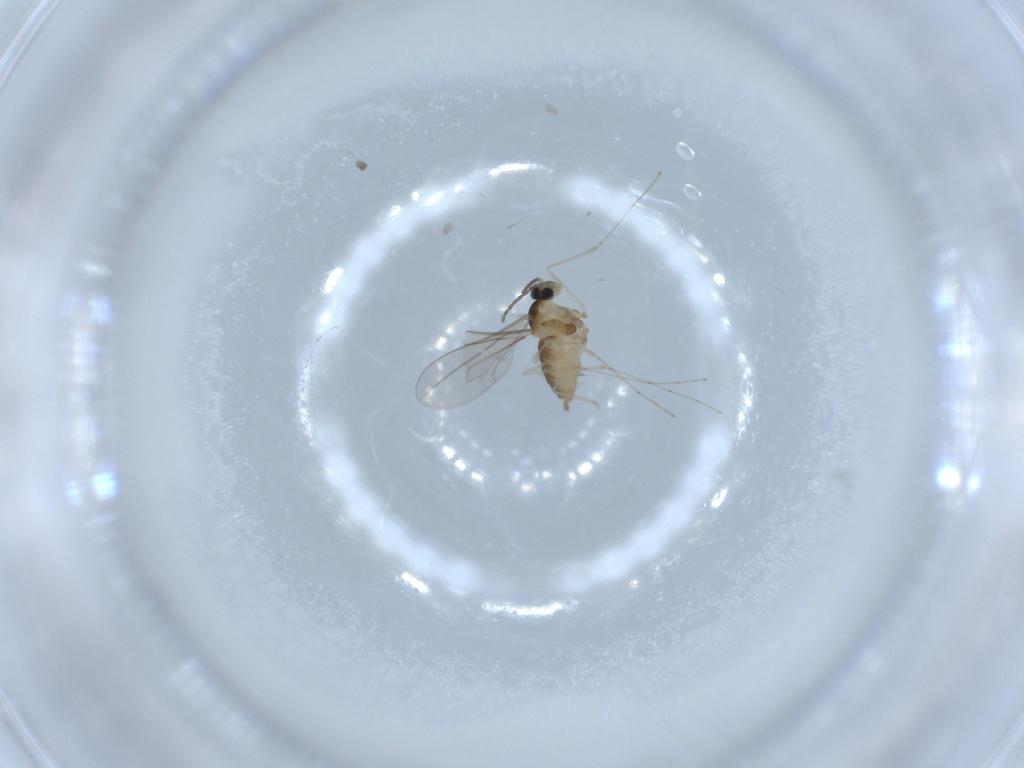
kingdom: Animalia
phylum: Arthropoda
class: Insecta
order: Diptera
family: Cecidomyiidae
